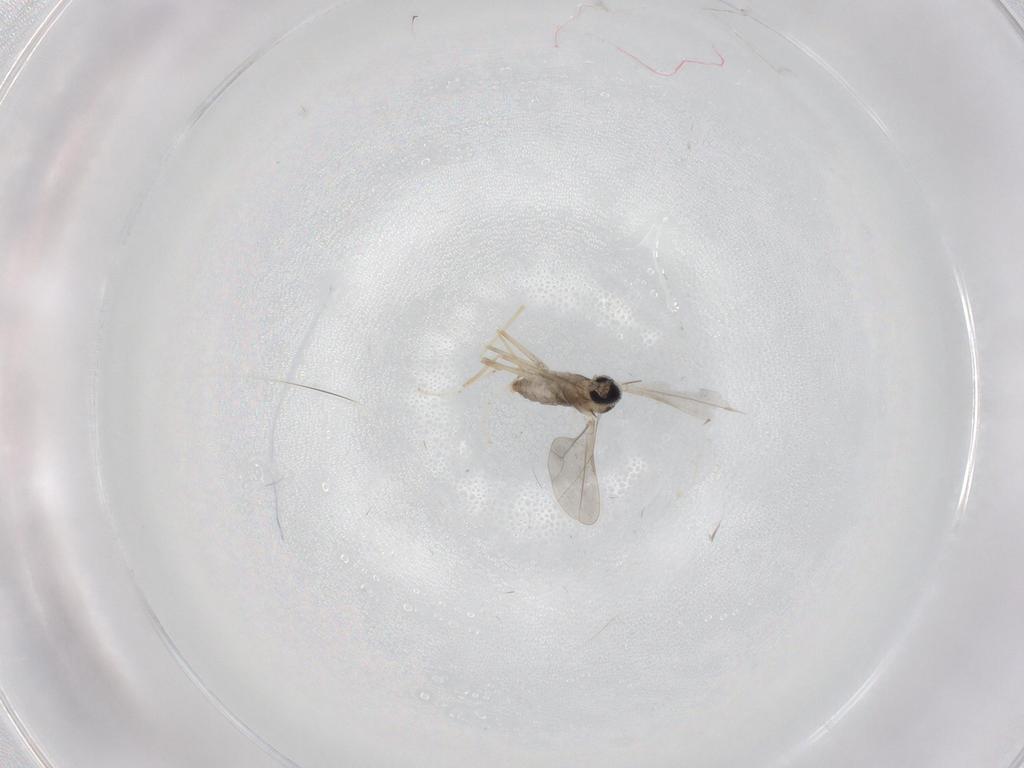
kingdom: Animalia
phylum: Arthropoda
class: Insecta
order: Diptera
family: Cecidomyiidae
